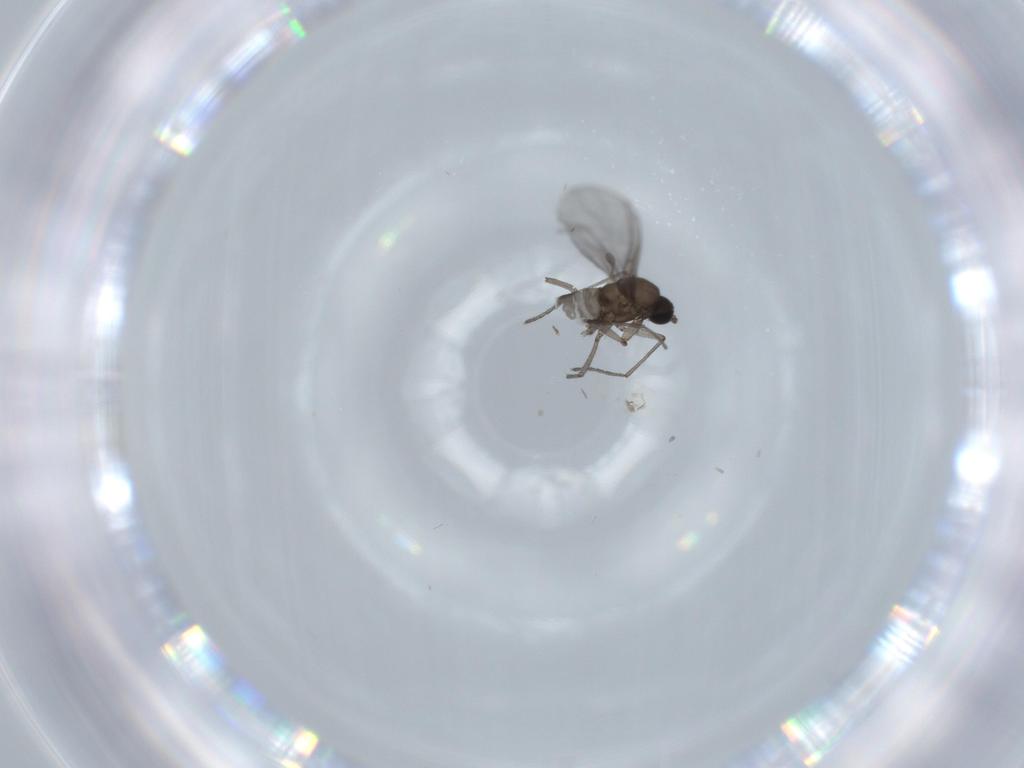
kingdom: Animalia
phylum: Arthropoda
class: Insecta
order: Diptera
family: Sciaridae
